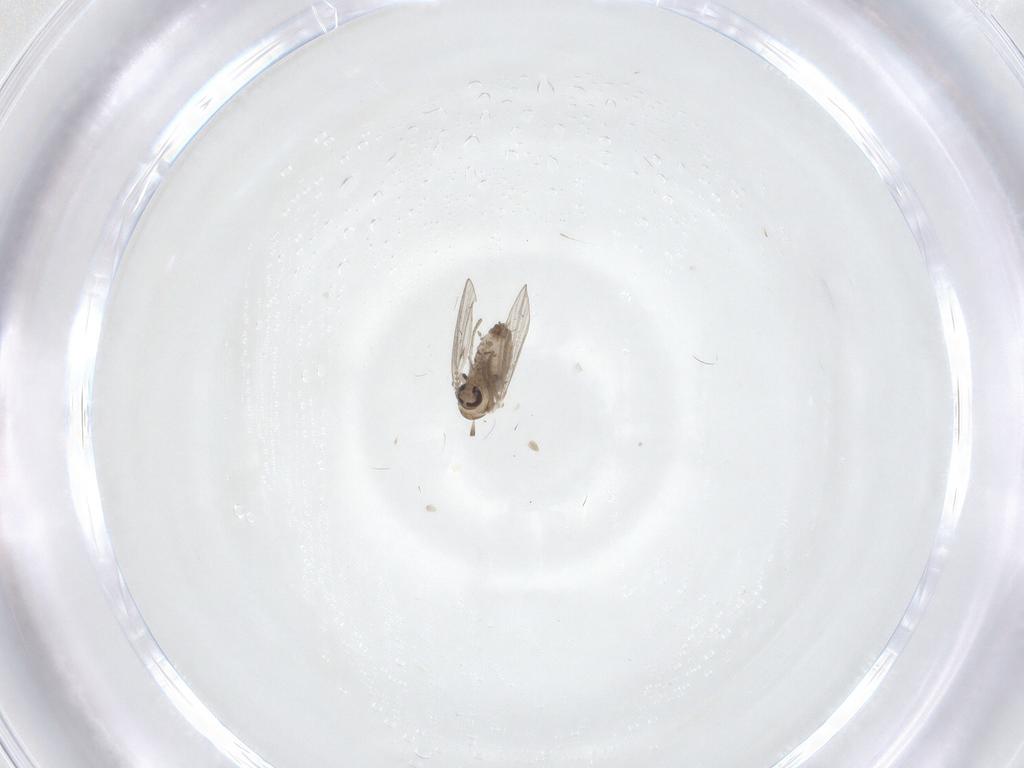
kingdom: Animalia
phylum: Arthropoda
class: Insecta
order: Diptera
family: Psychodidae
